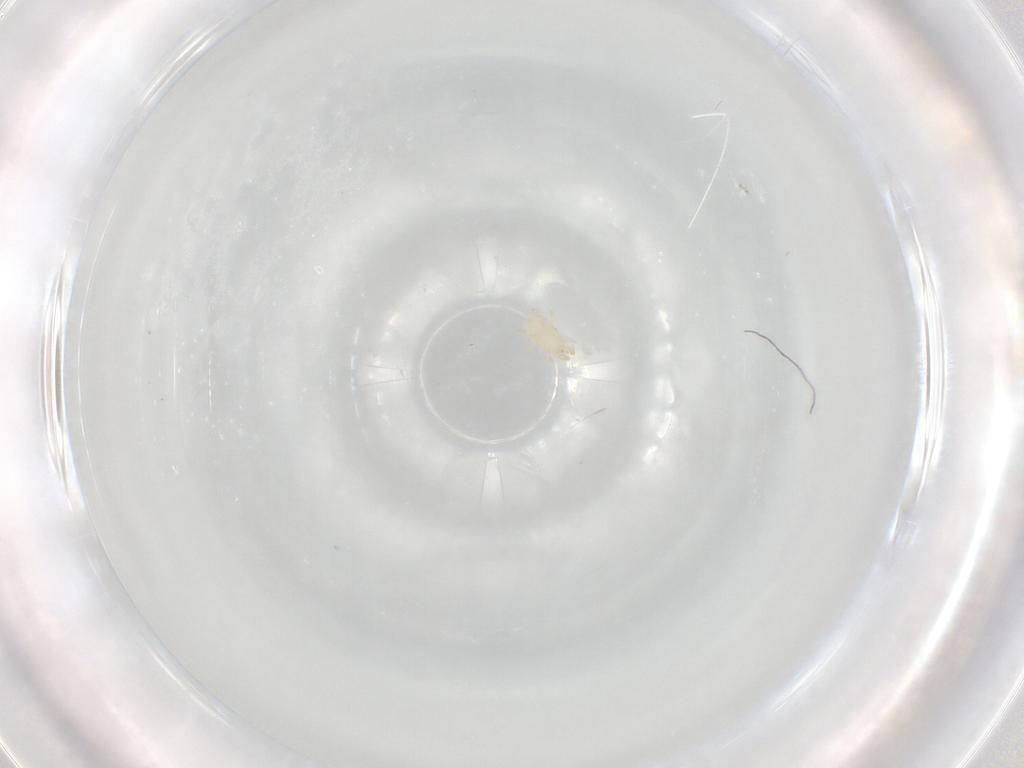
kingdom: Animalia
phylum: Arthropoda
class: Arachnida
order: Mesostigmata
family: Melicharidae
